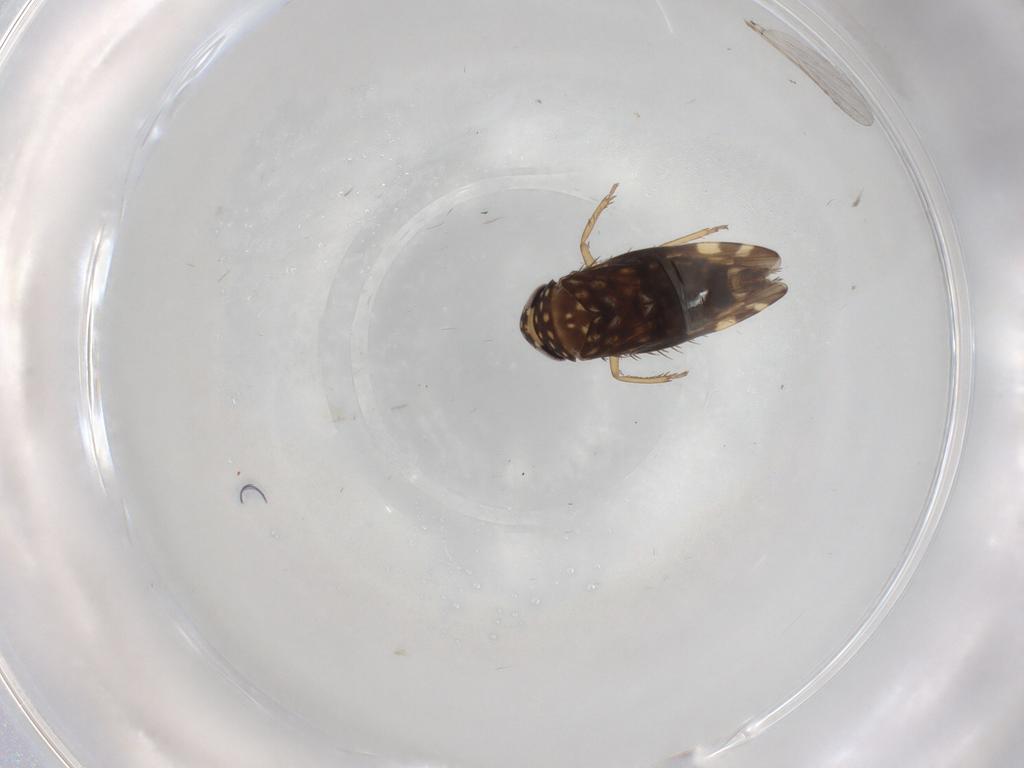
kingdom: Animalia
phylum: Arthropoda
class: Insecta
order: Hemiptera
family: Cicadellidae
